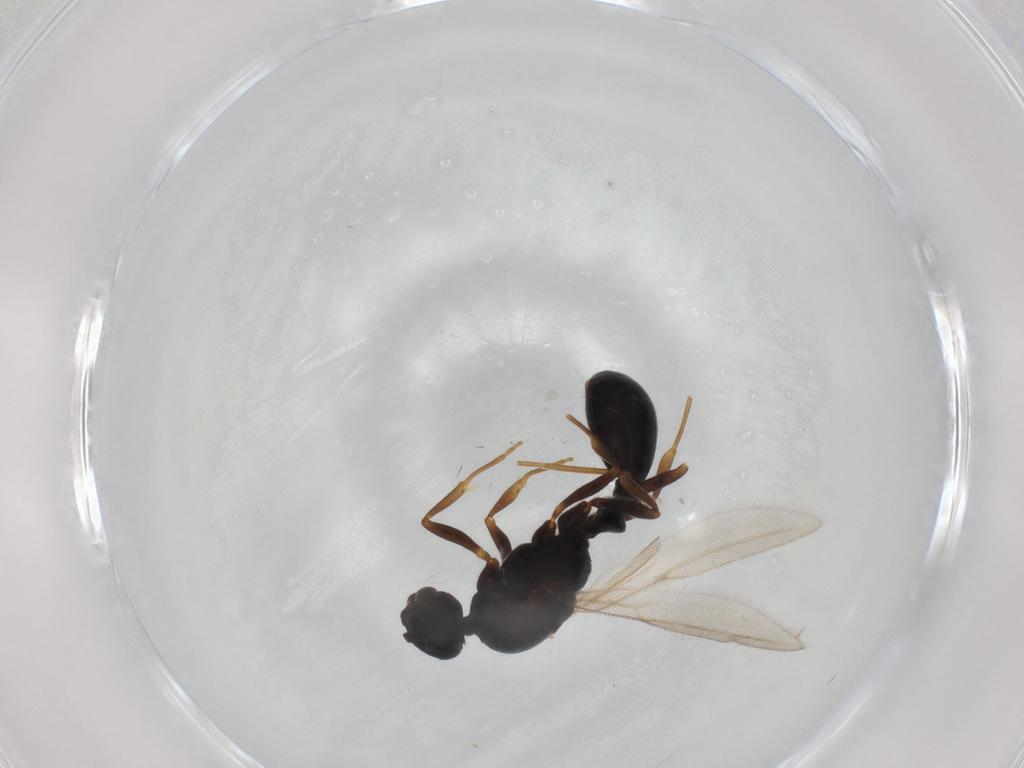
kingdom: Animalia
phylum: Arthropoda
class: Insecta
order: Hymenoptera
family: Formicidae
